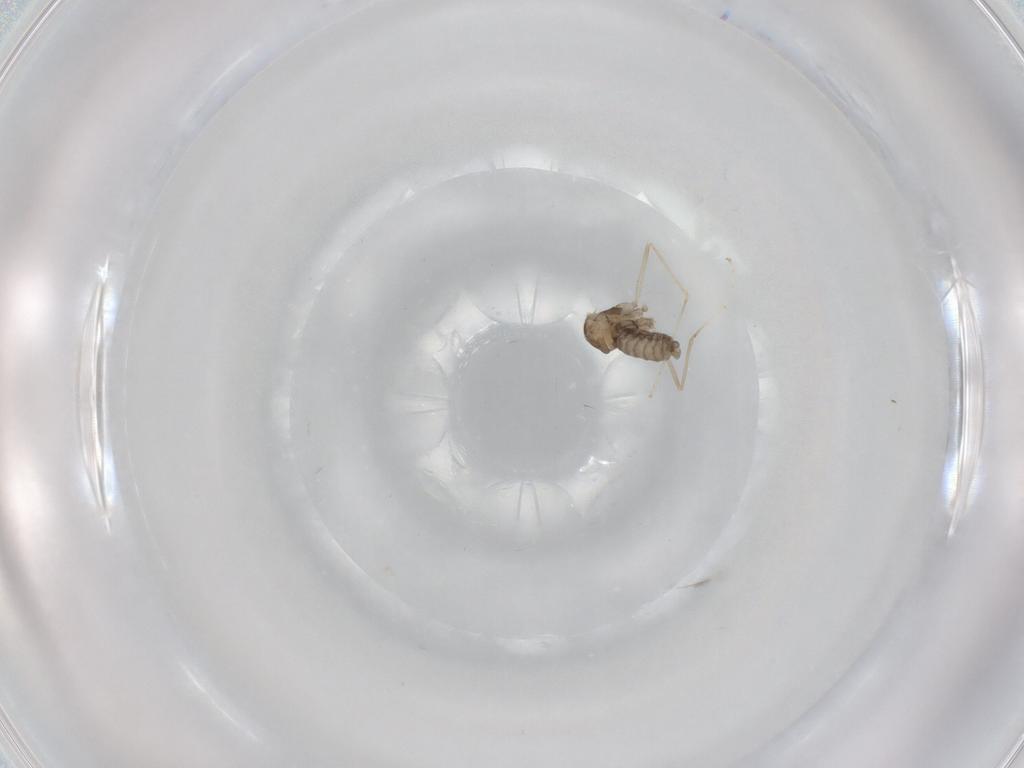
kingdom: Animalia
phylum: Arthropoda
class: Insecta
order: Diptera
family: Cecidomyiidae
